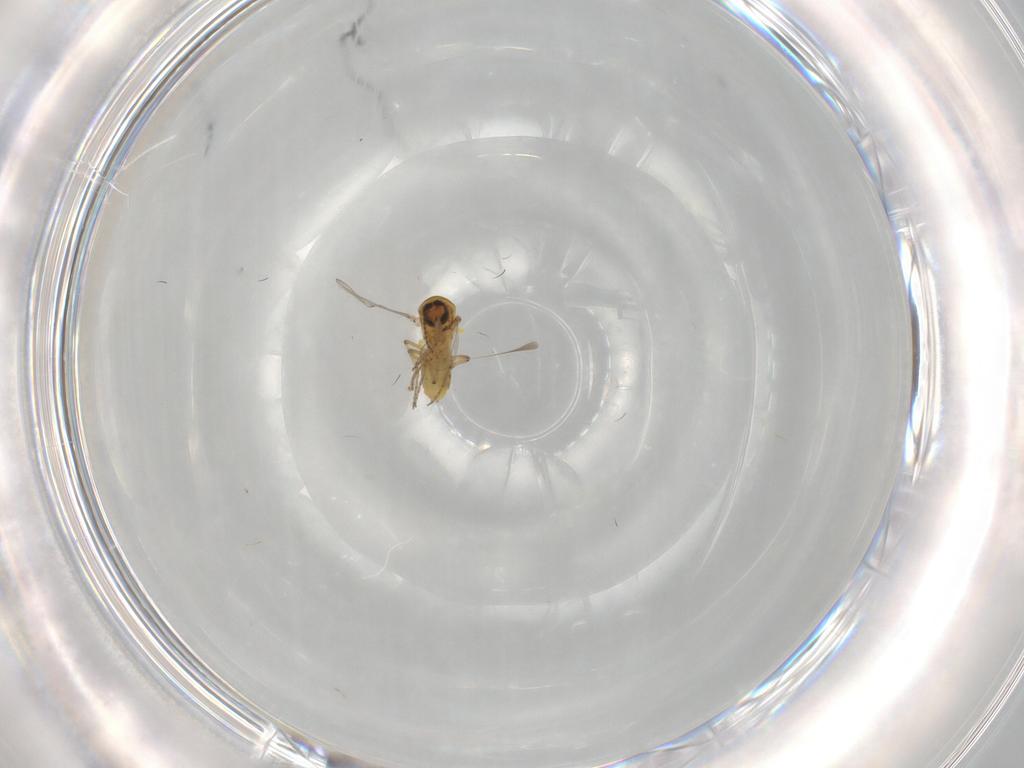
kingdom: Animalia
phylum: Arthropoda
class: Insecta
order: Diptera
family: Ceratopogonidae
